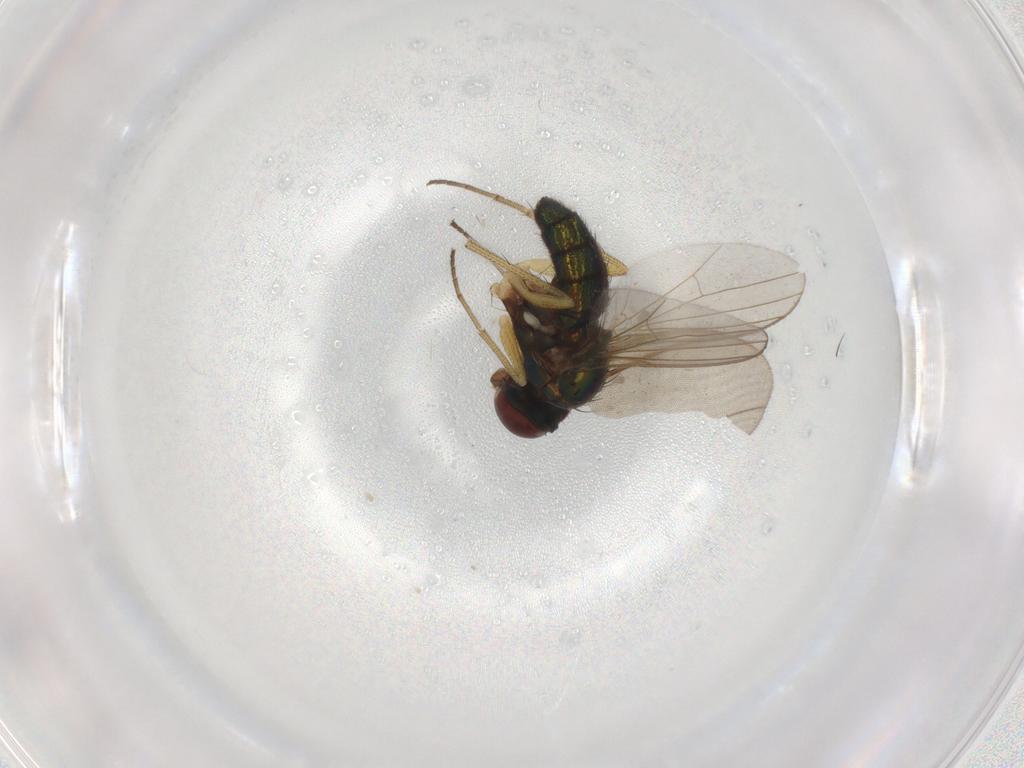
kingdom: Animalia
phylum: Arthropoda
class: Insecta
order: Diptera
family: Dolichopodidae
